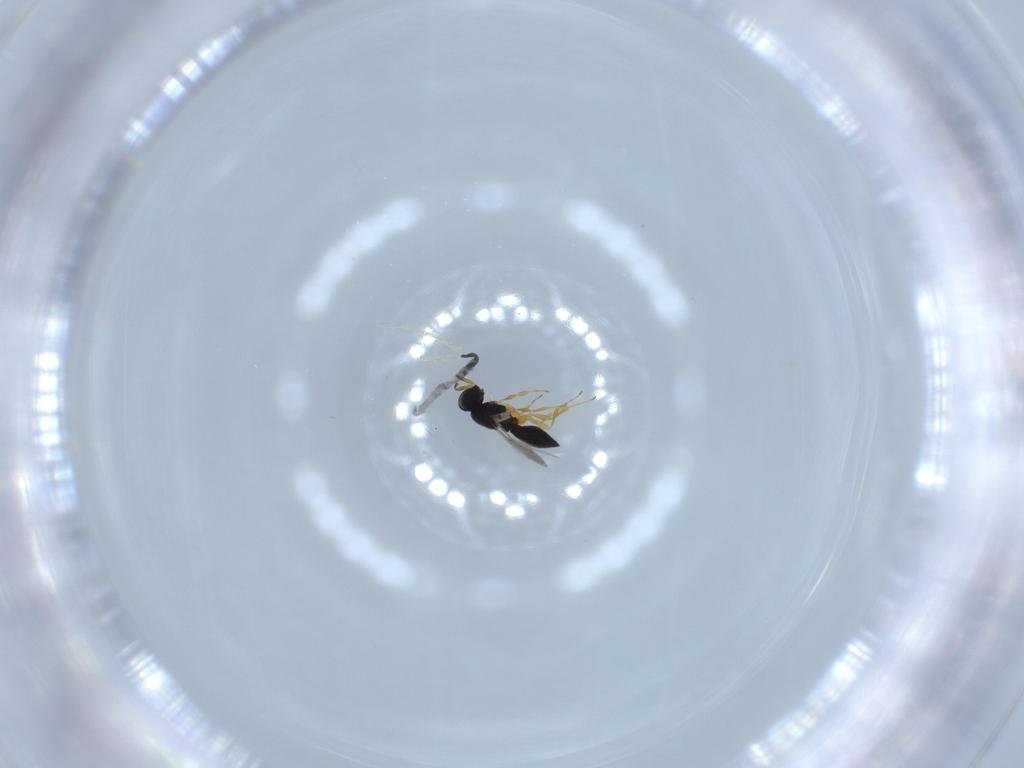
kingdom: Animalia
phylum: Arthropoda
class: Insecta
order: Hymenoptera
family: Scelionidae
